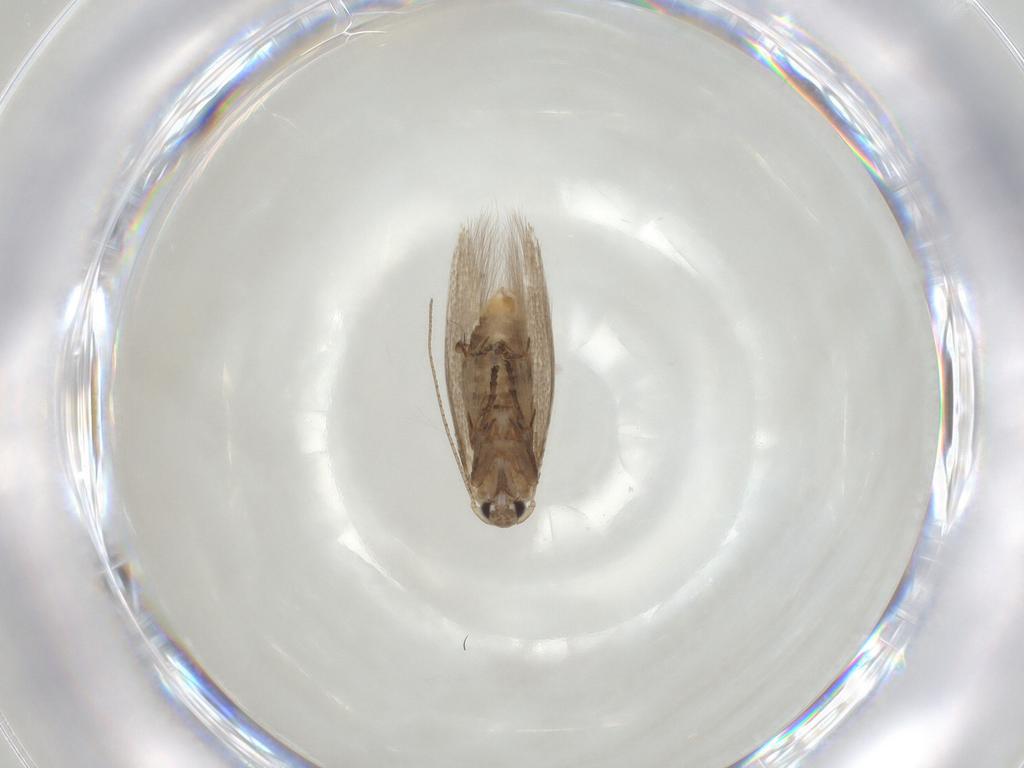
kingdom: Animalia
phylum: Arthropoda
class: Insecta
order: Lepidoptera
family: Bucculatricidae
